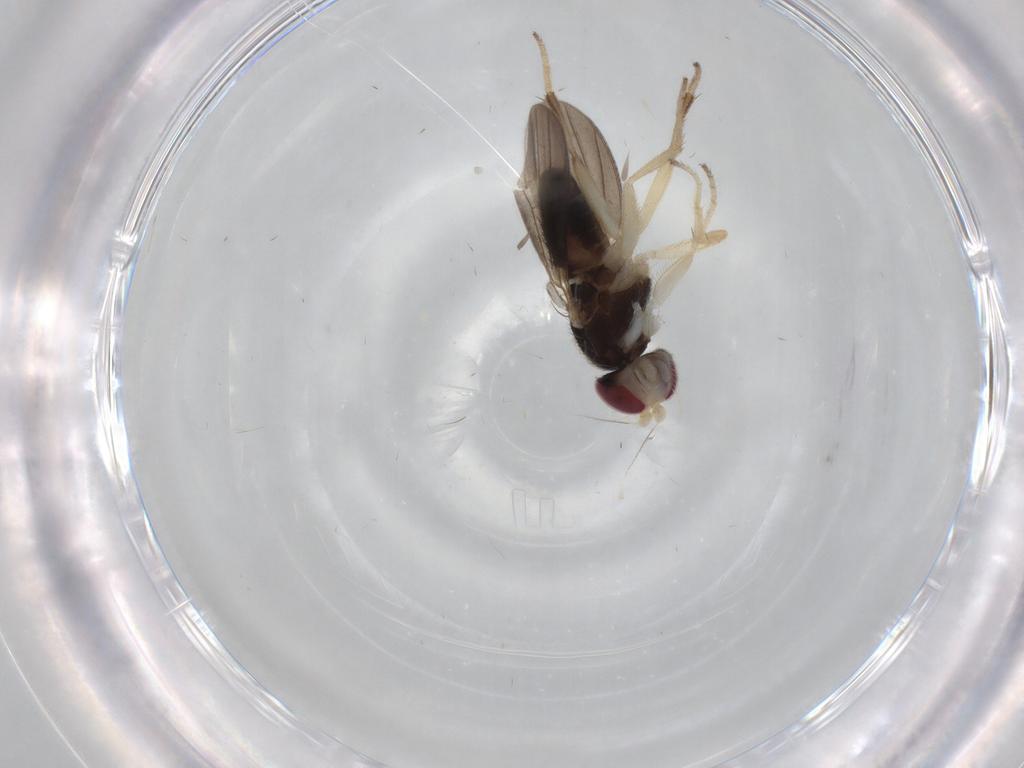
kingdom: Animalia
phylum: Arthropoda
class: Insecta
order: Diptera
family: Clusiidae
